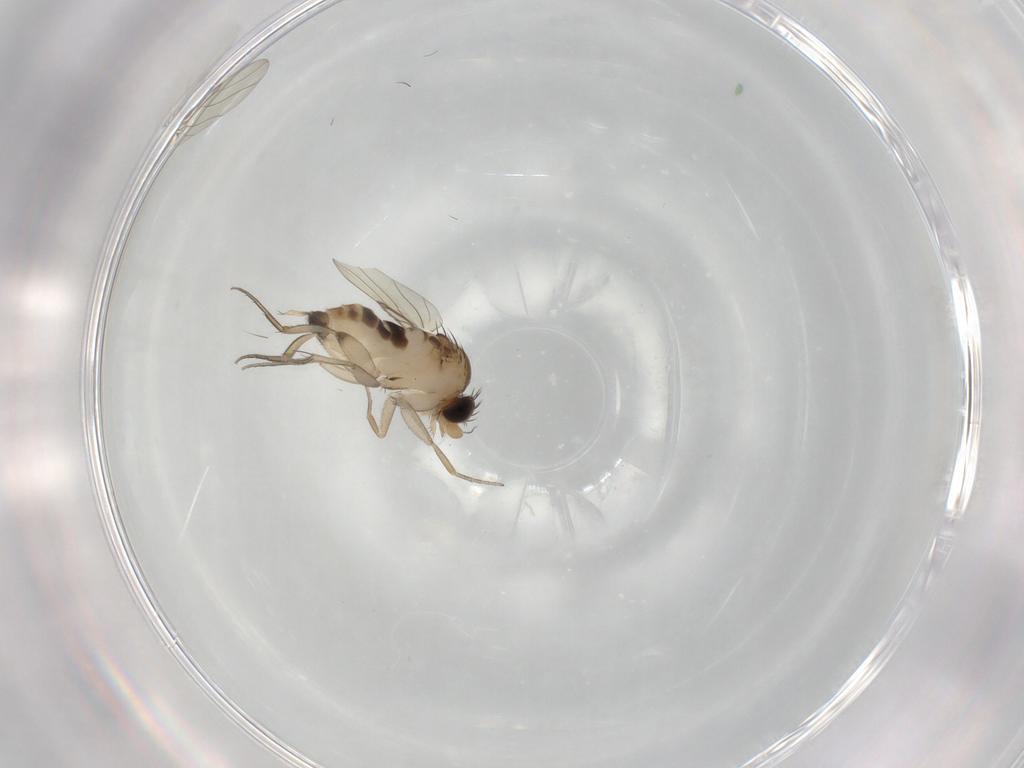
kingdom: Animalia
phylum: Arthropoda
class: Insecta
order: Diptera
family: Phoridae
